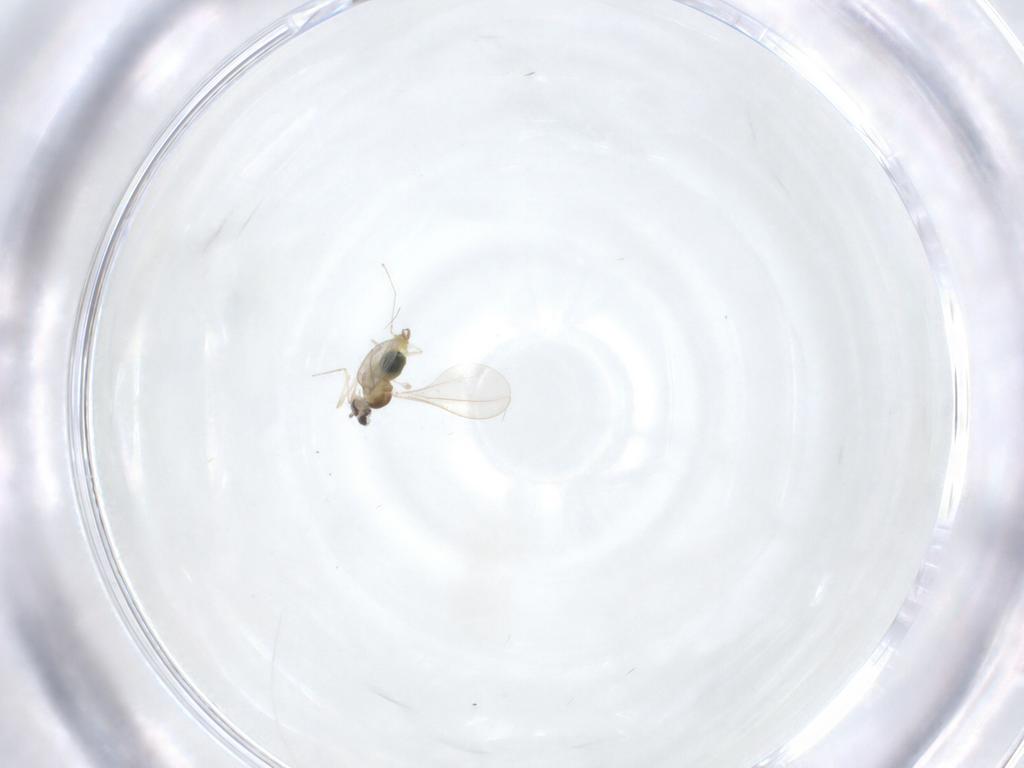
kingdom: Animalia
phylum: Arthropoda
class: Insecta
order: Diptera
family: Cecidomyiidae
